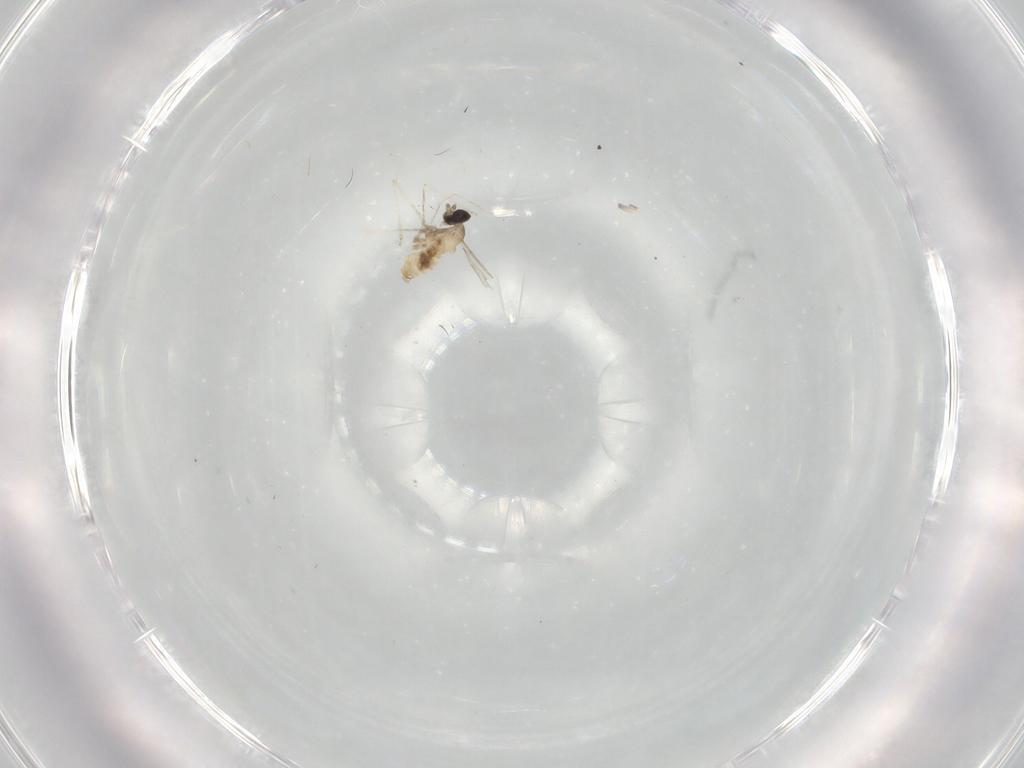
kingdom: Animalia
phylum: Arthropoda
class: Insecta
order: Diptera
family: Cecidomyiidae
